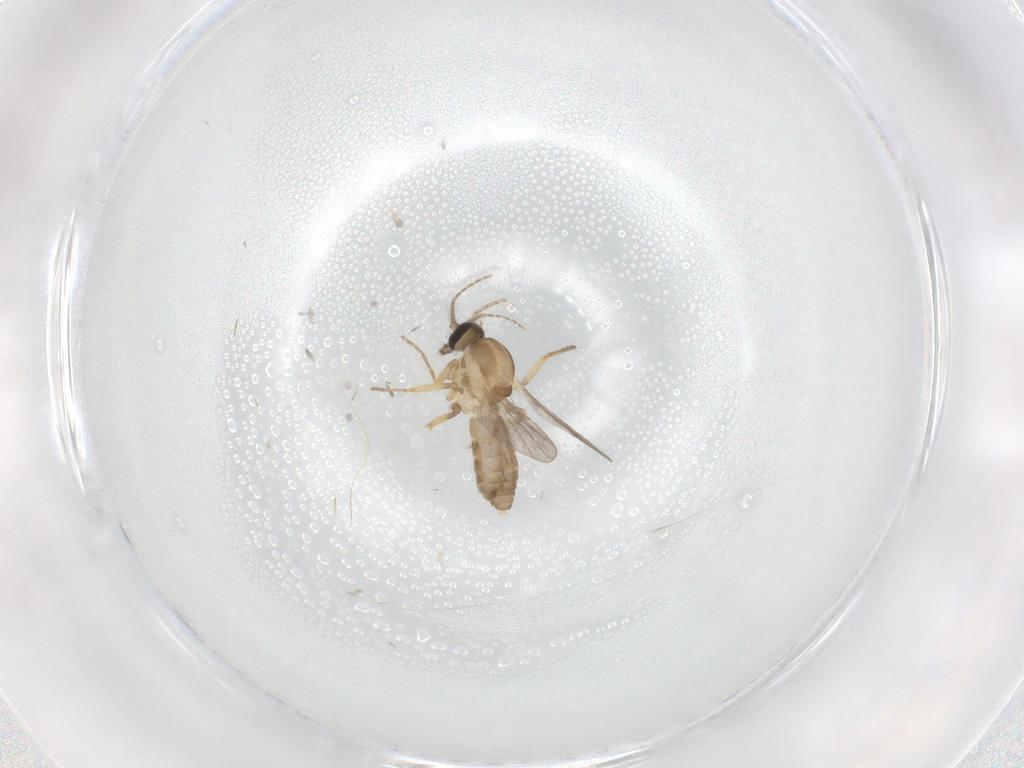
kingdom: Animalia
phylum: Arthropoda
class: Insecta
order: Diptera
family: Ceratopogonidae
